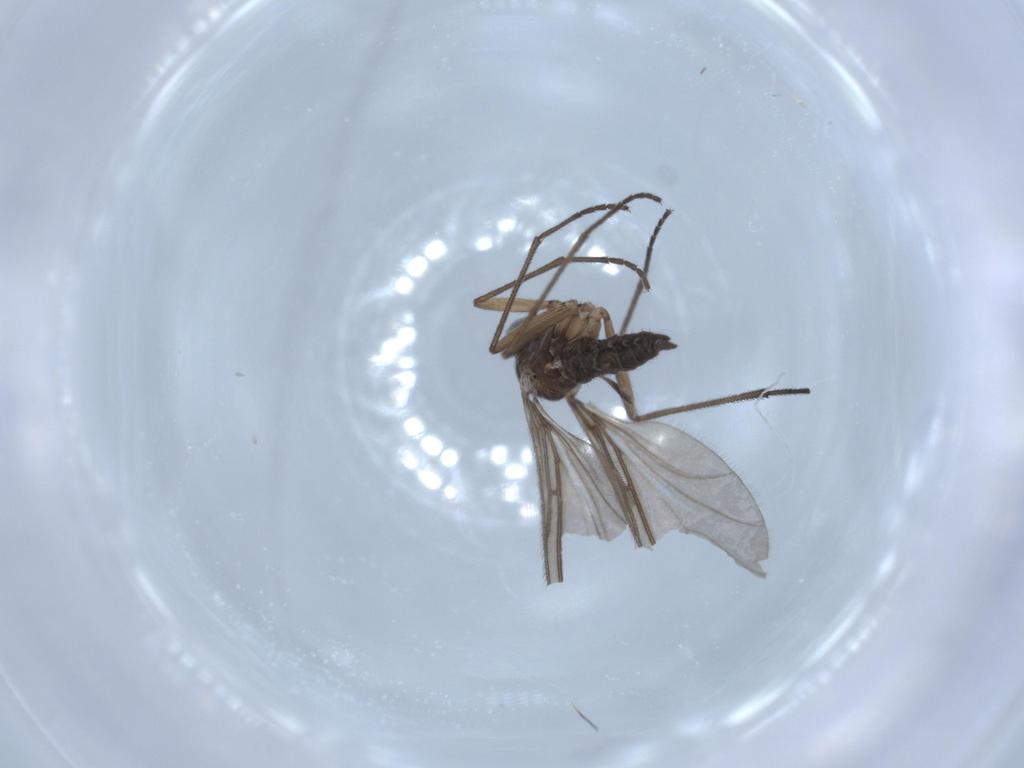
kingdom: Animalia
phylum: Arthropoda
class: Insecta
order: Diptera
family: Sciaridae
